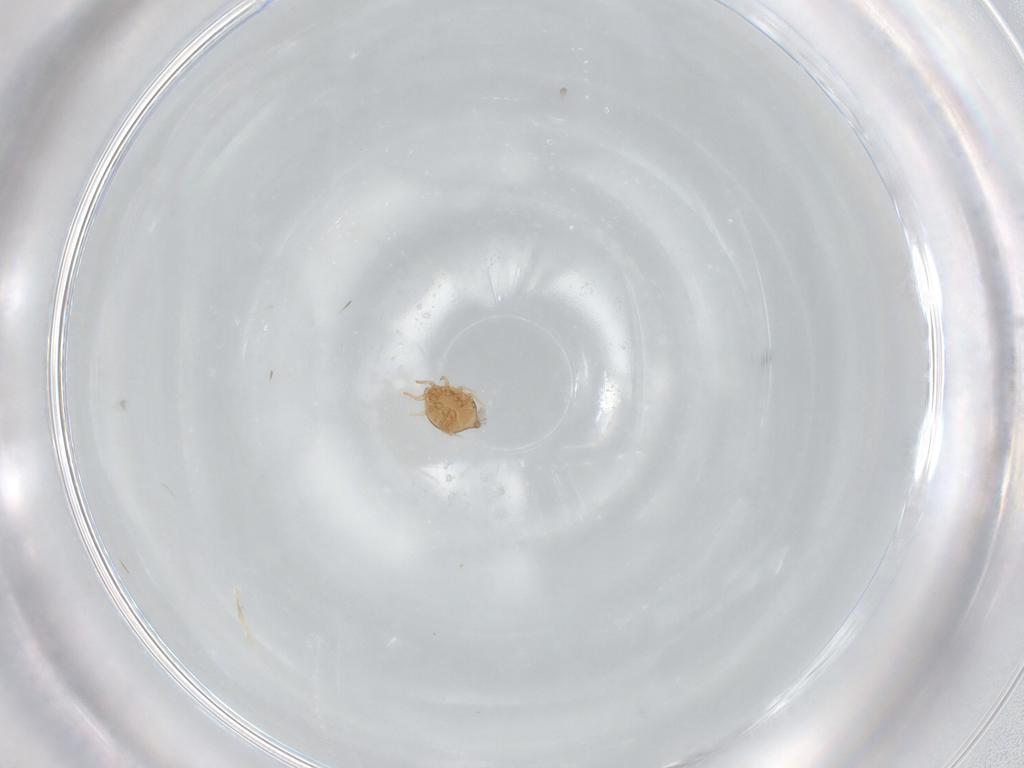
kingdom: Animalia
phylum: Arthropoda
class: Arachnida
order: Mesostigmata
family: Polyaspididae
